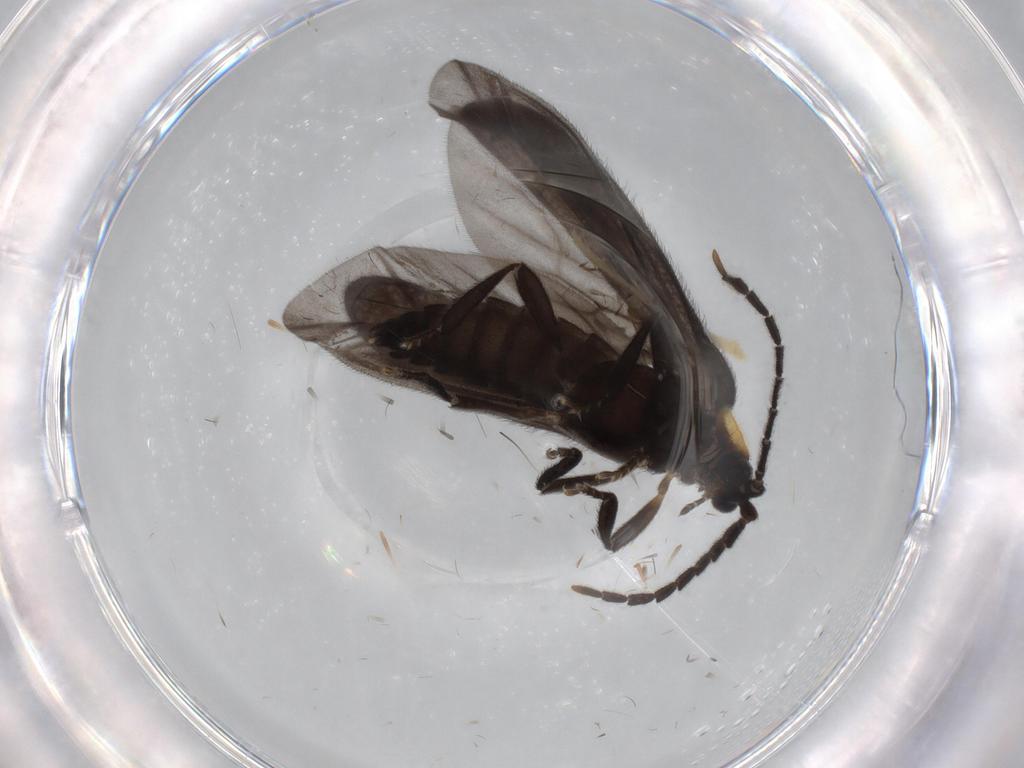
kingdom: Animalia
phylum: Arthropoda
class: Insecta
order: Coleoptera
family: Lycidae
